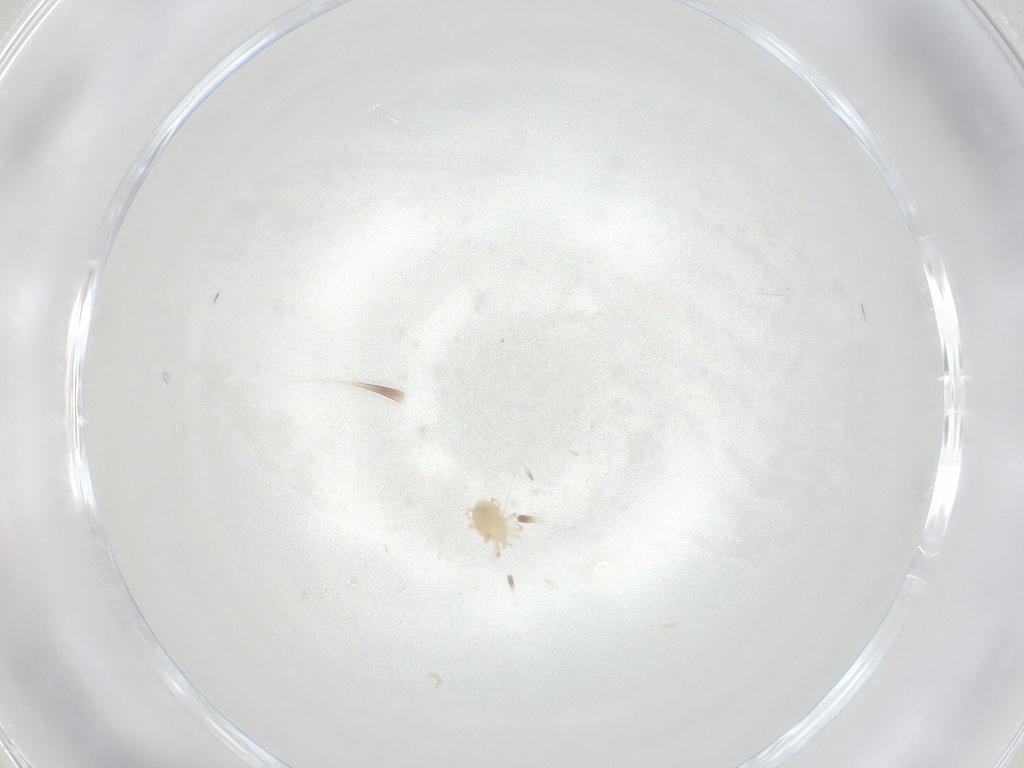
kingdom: Animalia
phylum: Arthropoda
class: Arachnida
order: Mesostigmata
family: Phytoseiidae
